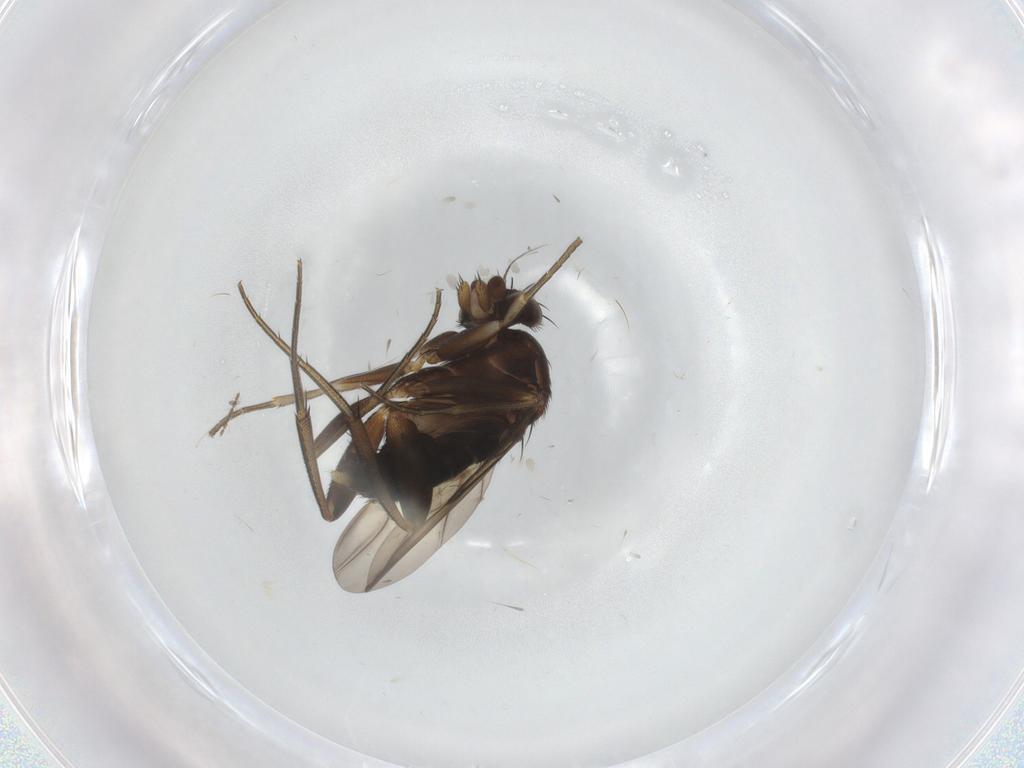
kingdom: Animalia
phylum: Arthropoda
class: Insecta
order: Diptera
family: Phoridae
